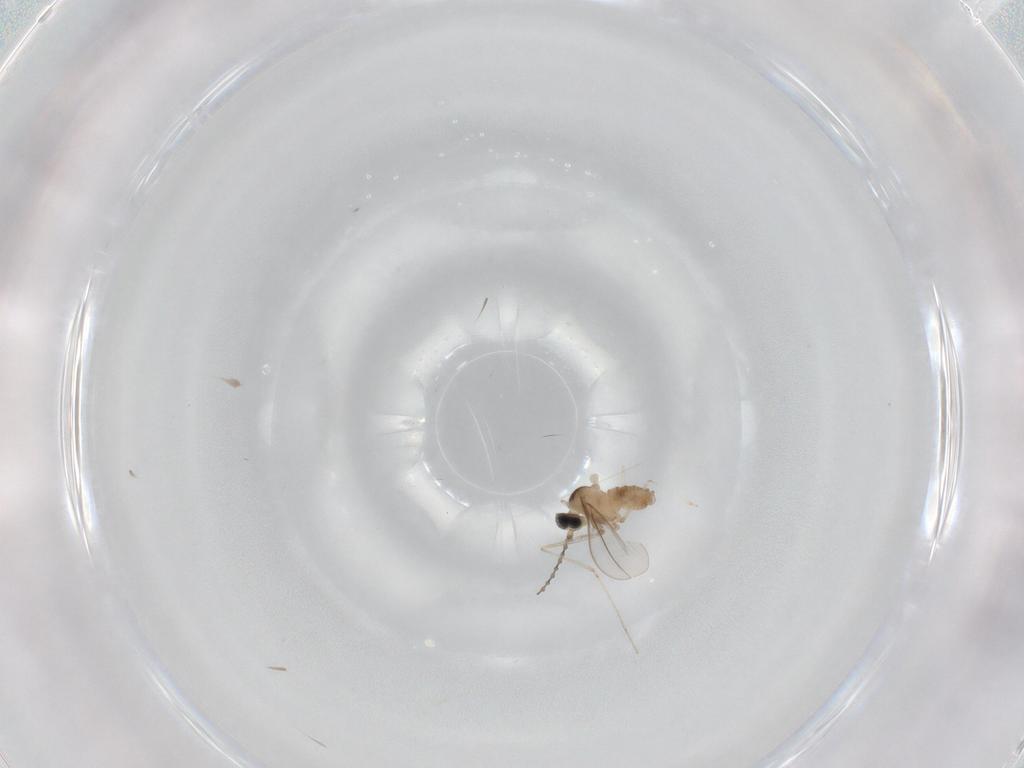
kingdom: Animalia
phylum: Arthropoda
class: Insecta
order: Diptera
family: Cecidomyiidae
